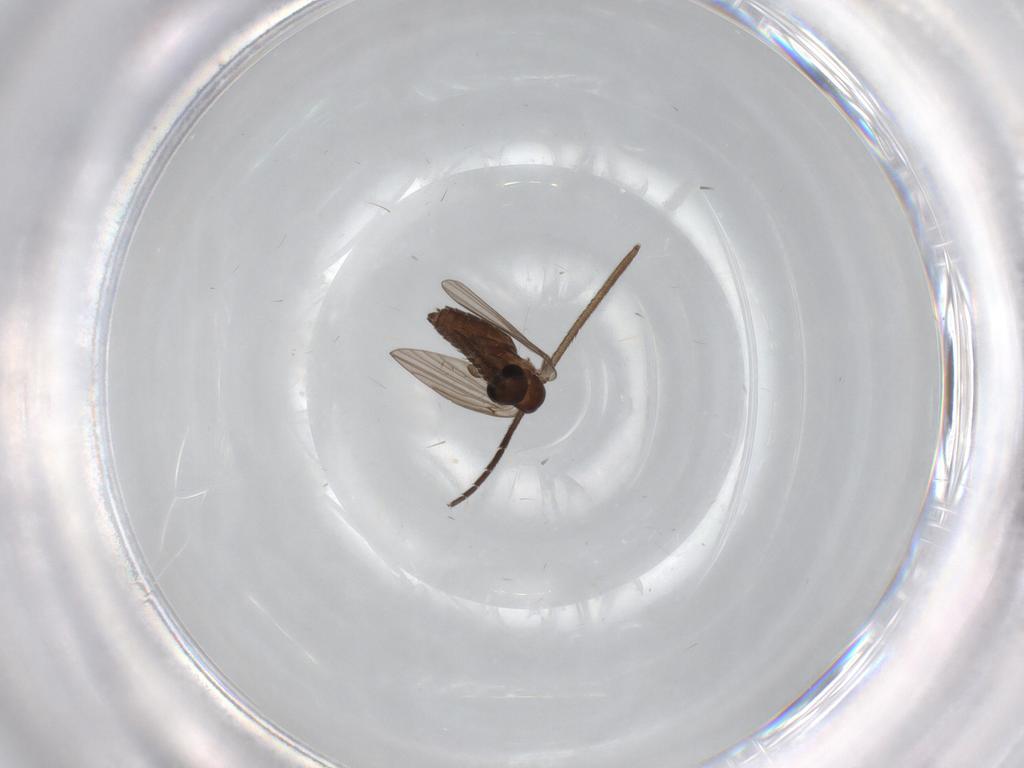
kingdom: Animalia
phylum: Arthropoda
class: Insecta
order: Diptera
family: Psychodidae
